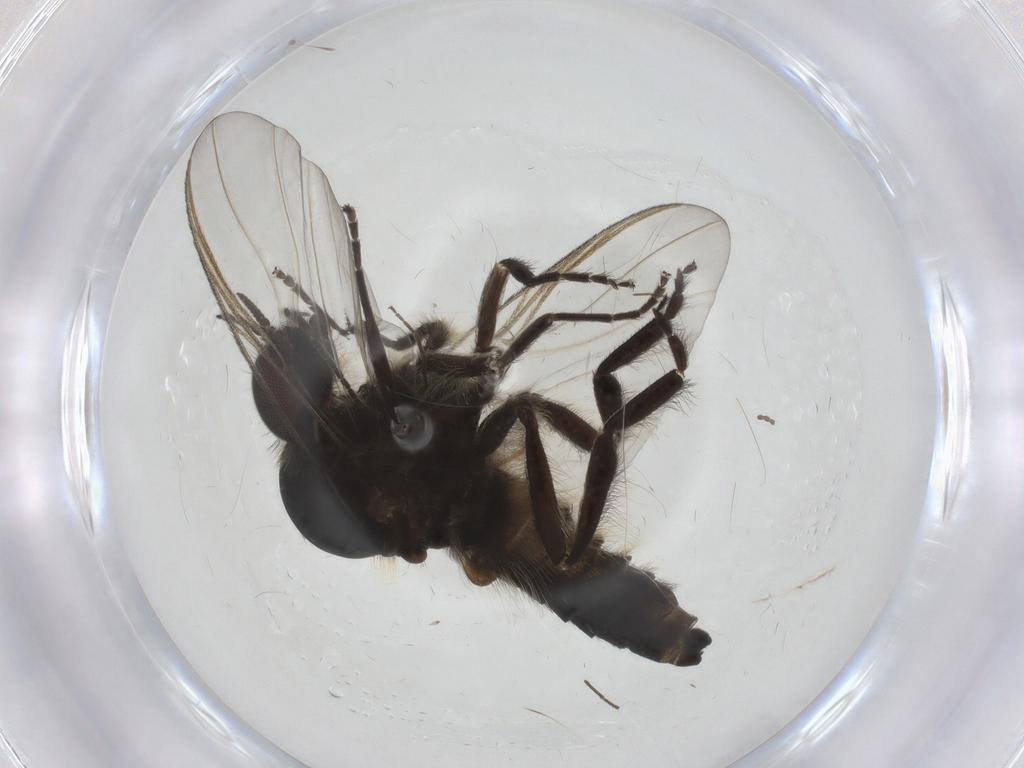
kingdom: Animalia
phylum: Arthropoda
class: Insecta
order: Diptera
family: Sciaridae
